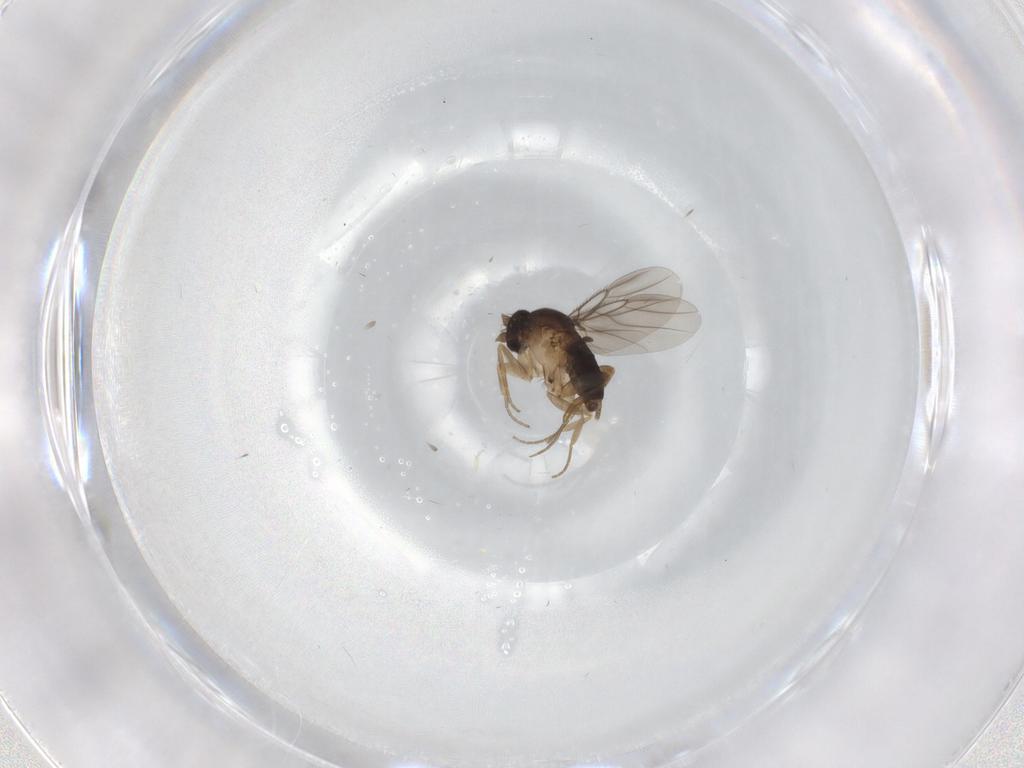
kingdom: Animalia
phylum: Arthropoda
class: Insecta
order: Diptera
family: Phoridae
